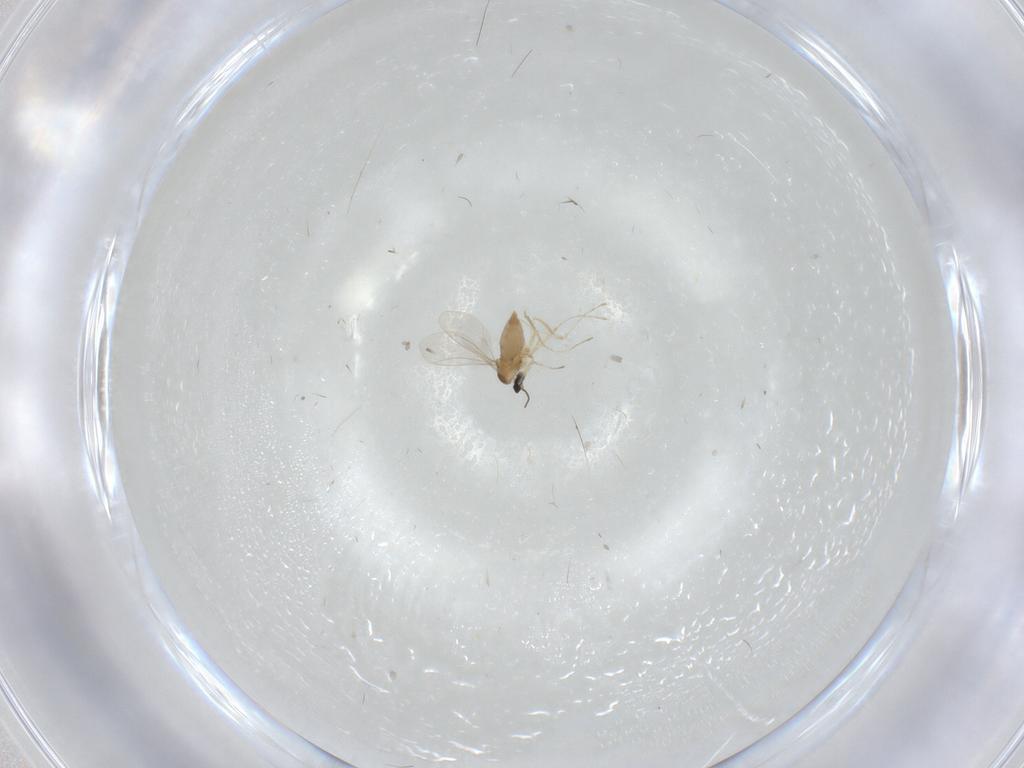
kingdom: Animalia
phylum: Arthropoda
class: Insecta
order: Diptera
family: Cecidomyiidae
